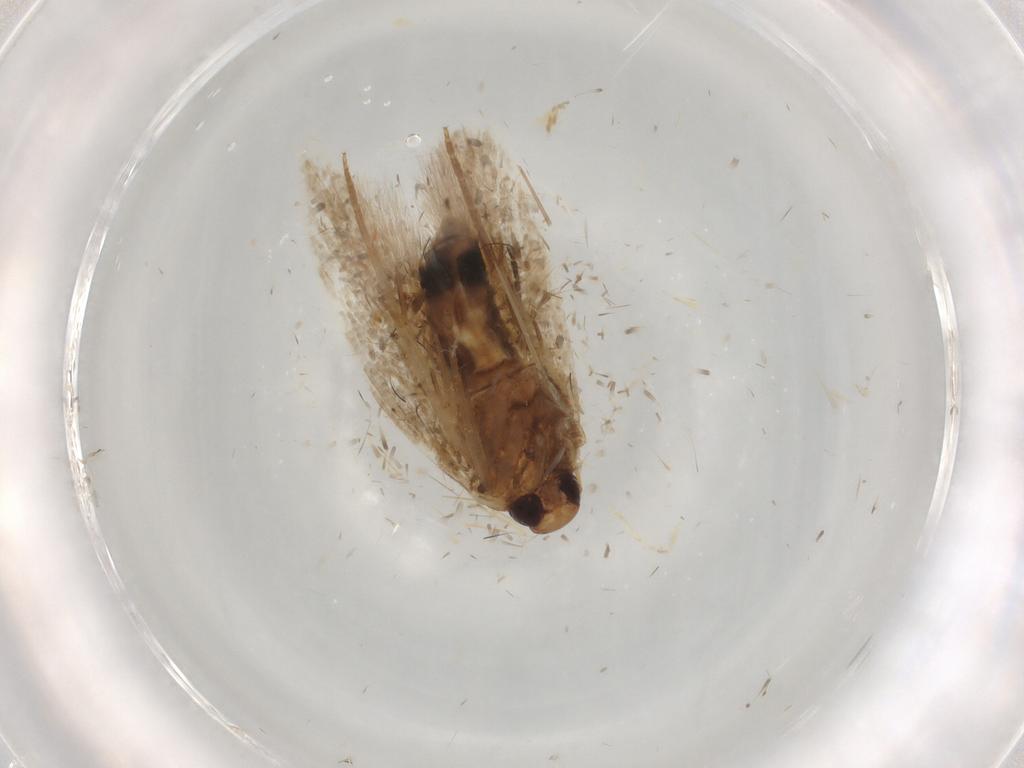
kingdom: Animalia
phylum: Arthropoda
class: Insecta
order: Lepidoptera
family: Cosmopterigidae
